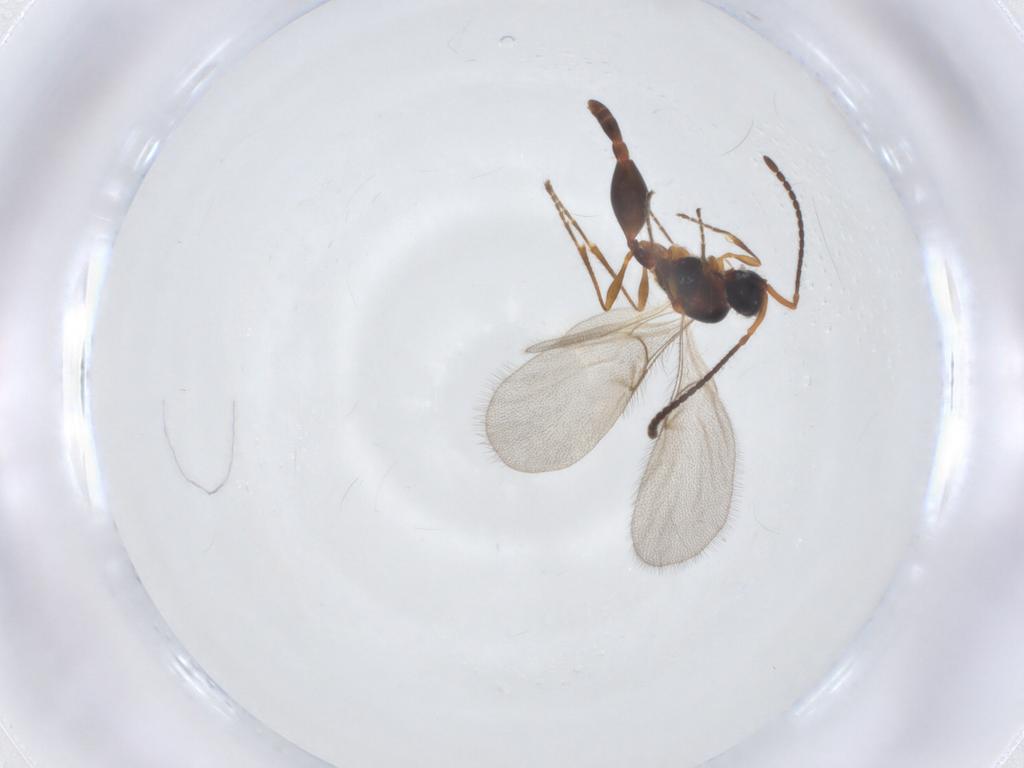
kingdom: Animalia
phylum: Arthropoda
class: Insecta
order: Hymenoptera
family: Diapriidae
